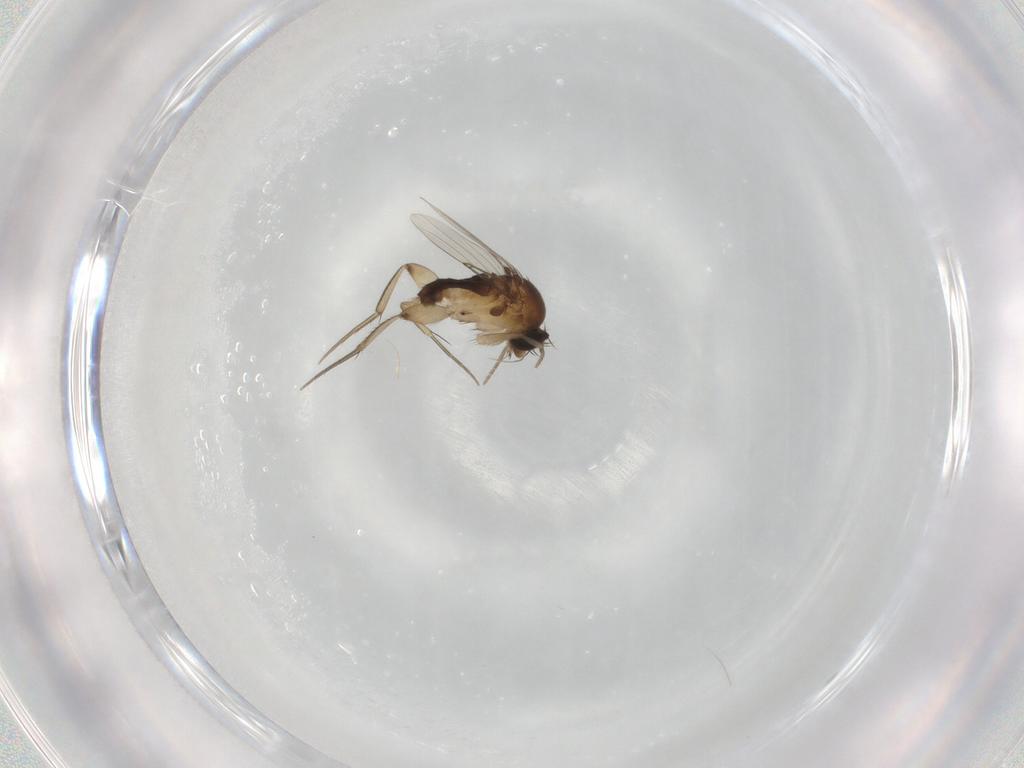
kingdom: Animalia
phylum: Arthropoda
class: Insecta
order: Diptera
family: Phoridae
